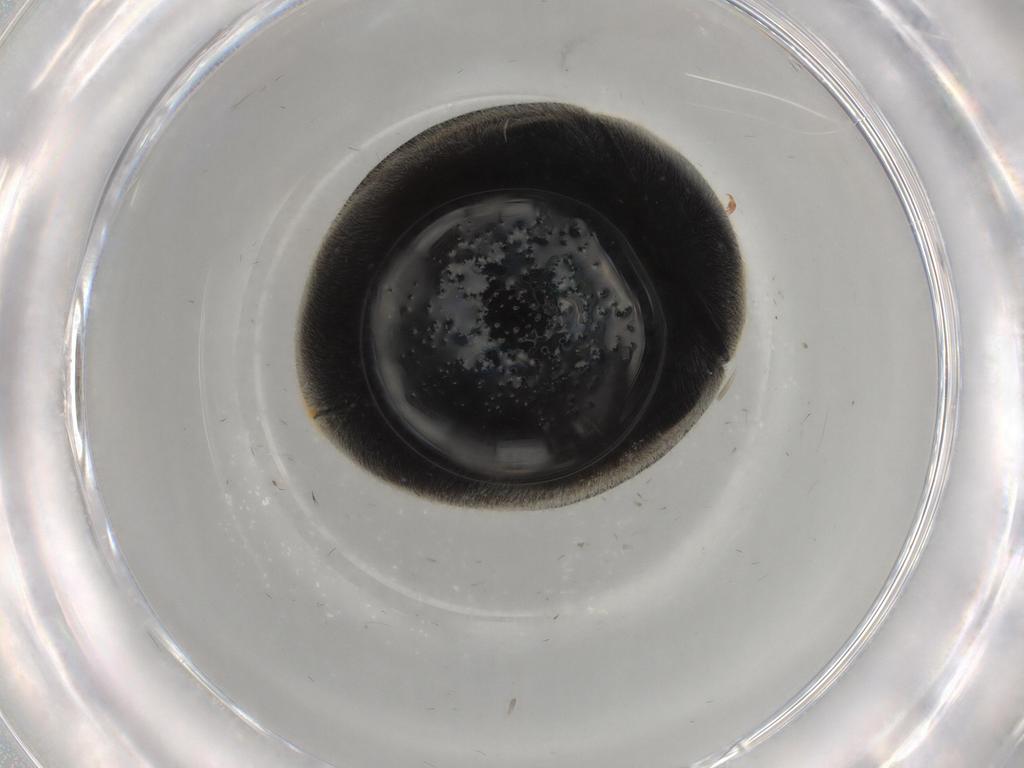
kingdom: Animalia
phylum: Arthropoda
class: Insecta
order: Coleoptera
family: Coccinellidae
